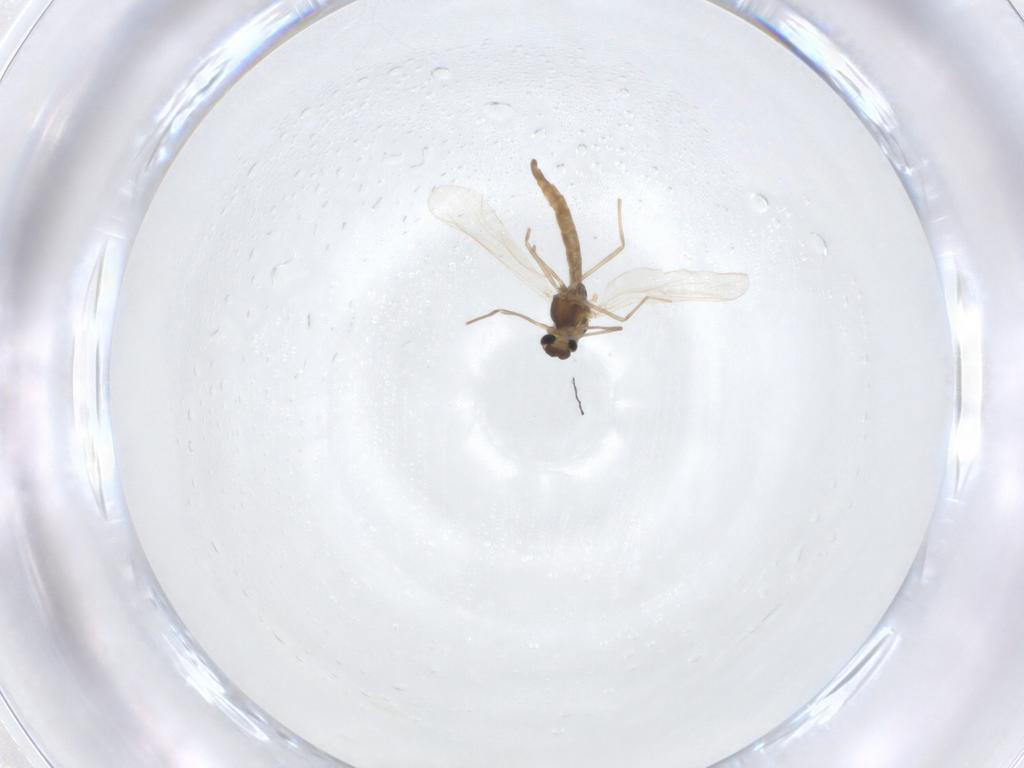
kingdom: Animalia
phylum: Arthropoda
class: Insecta
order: Diptera
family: Chironomidae
